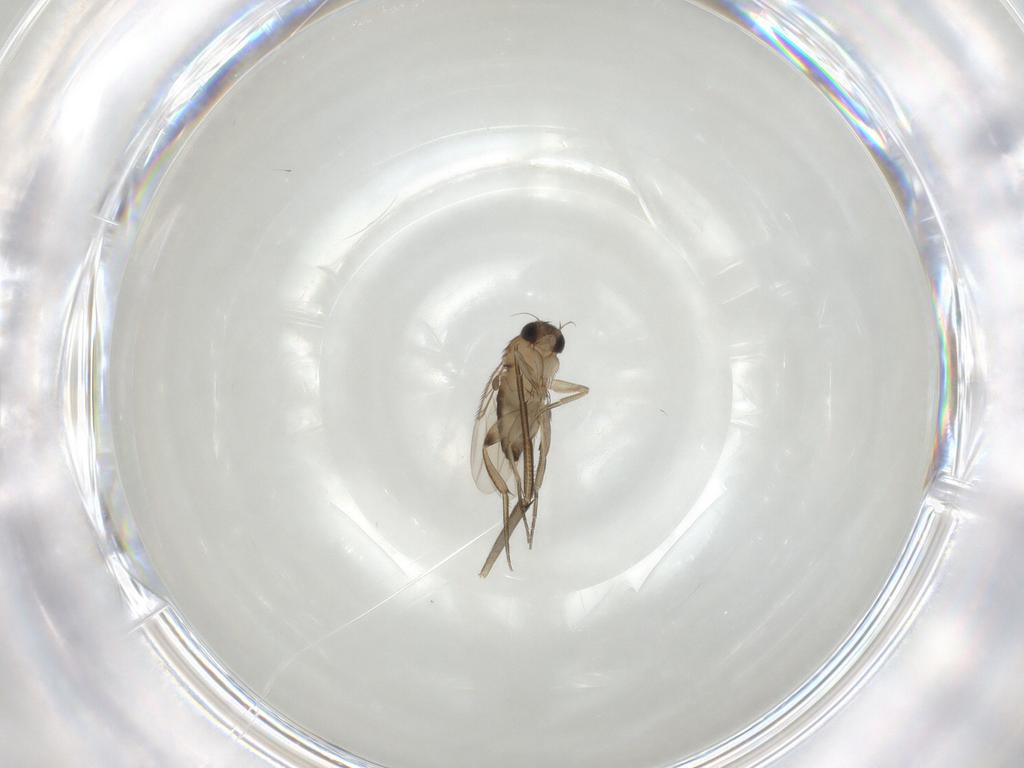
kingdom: Animalia
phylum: Arthropoda
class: Insecta
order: Diptera
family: Phoridae
